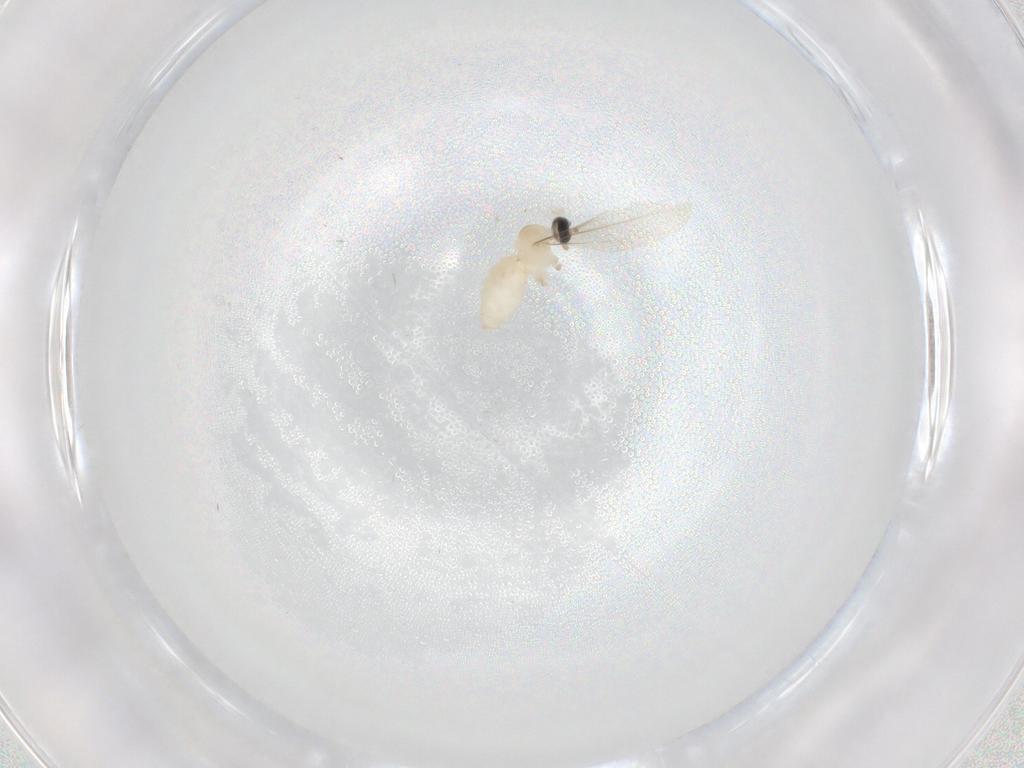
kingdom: Animalia
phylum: Arthropoda
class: Insecta
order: Diptera
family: Cecidomyiidae
